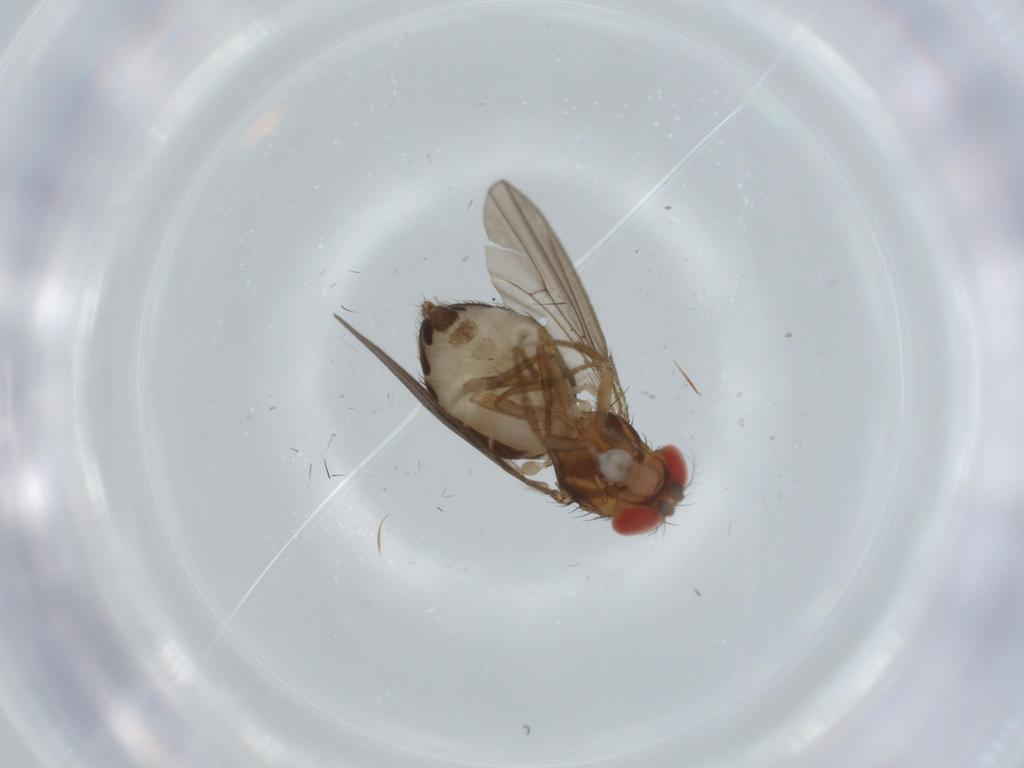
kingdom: Animalia
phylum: Arthropoda
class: Insecta
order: Diptera
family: Drosophilidae
